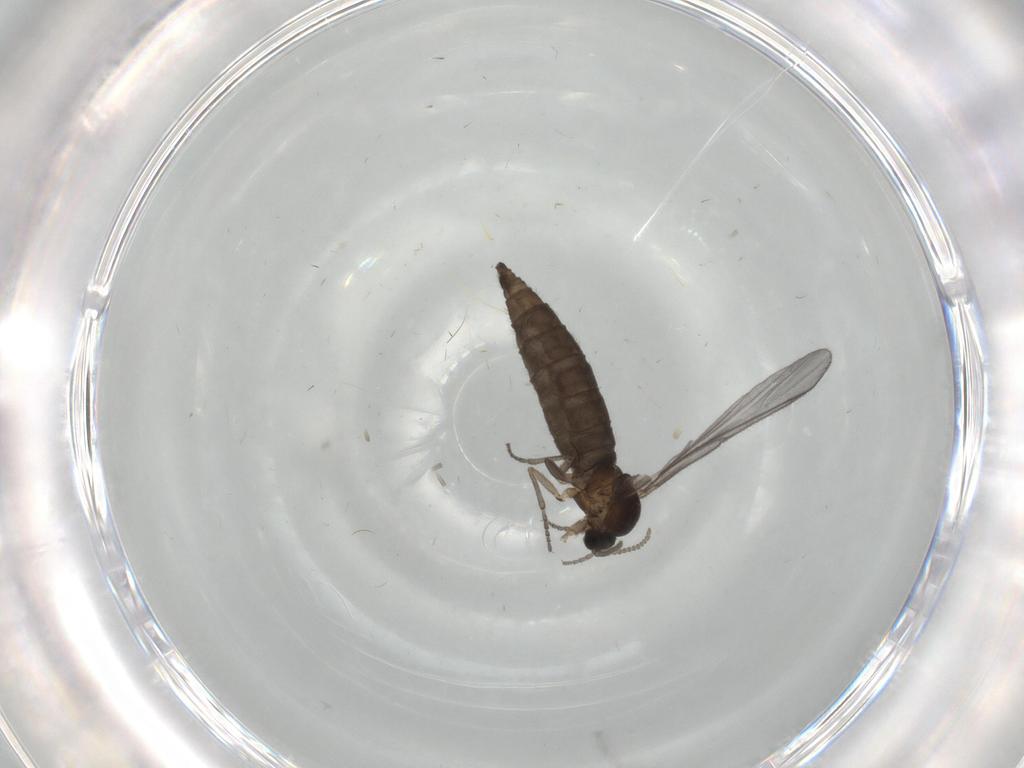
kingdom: Animalia
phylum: Arthropoda
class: Insecta
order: Diptera
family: Sciaridae
